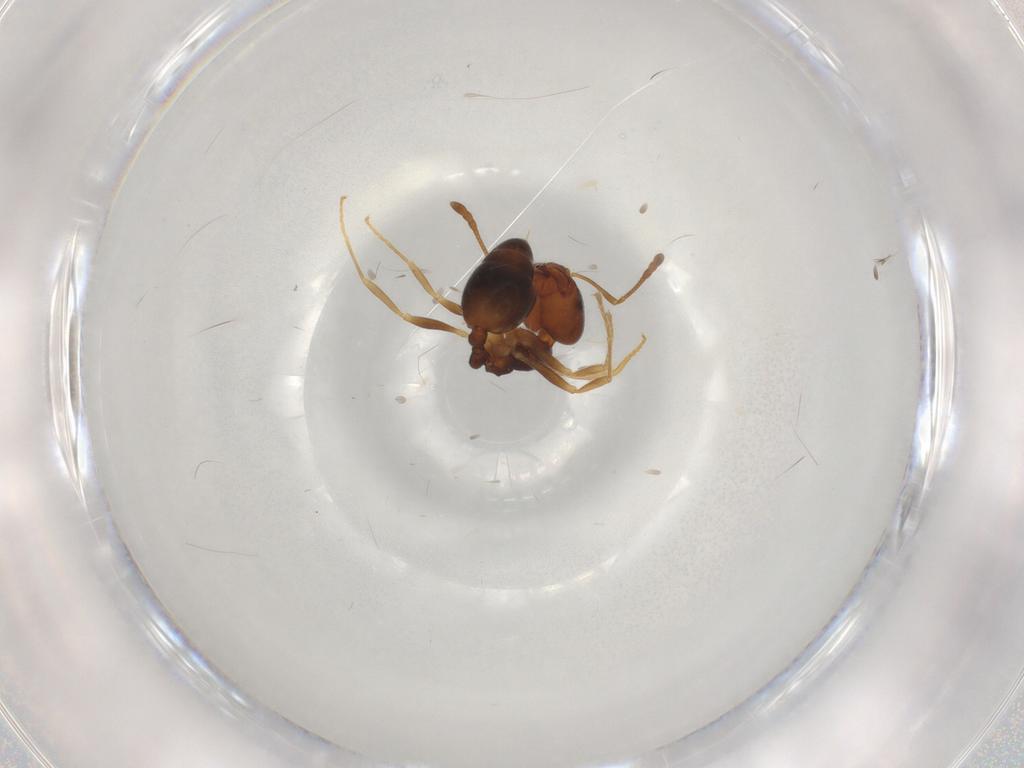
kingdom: Animalia
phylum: Arthropoda
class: Insecta
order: Hymenoptera
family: Formicidae
